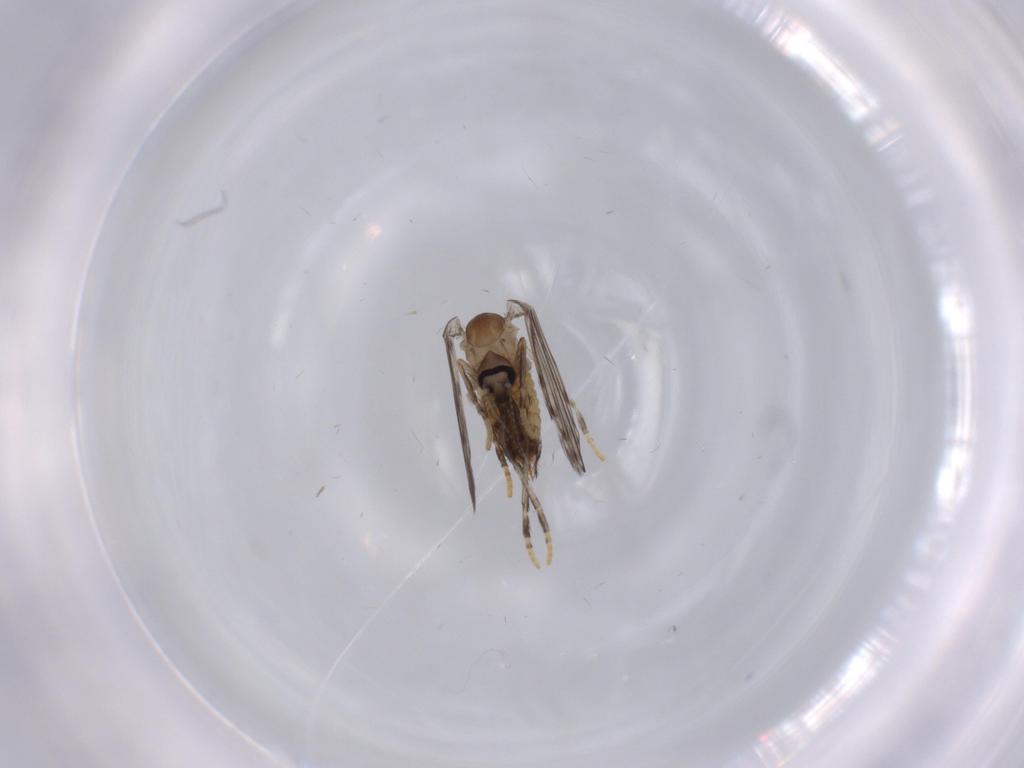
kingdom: Animalia
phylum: Arthropoda
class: Insecta
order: Diptera
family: Psychodidae
